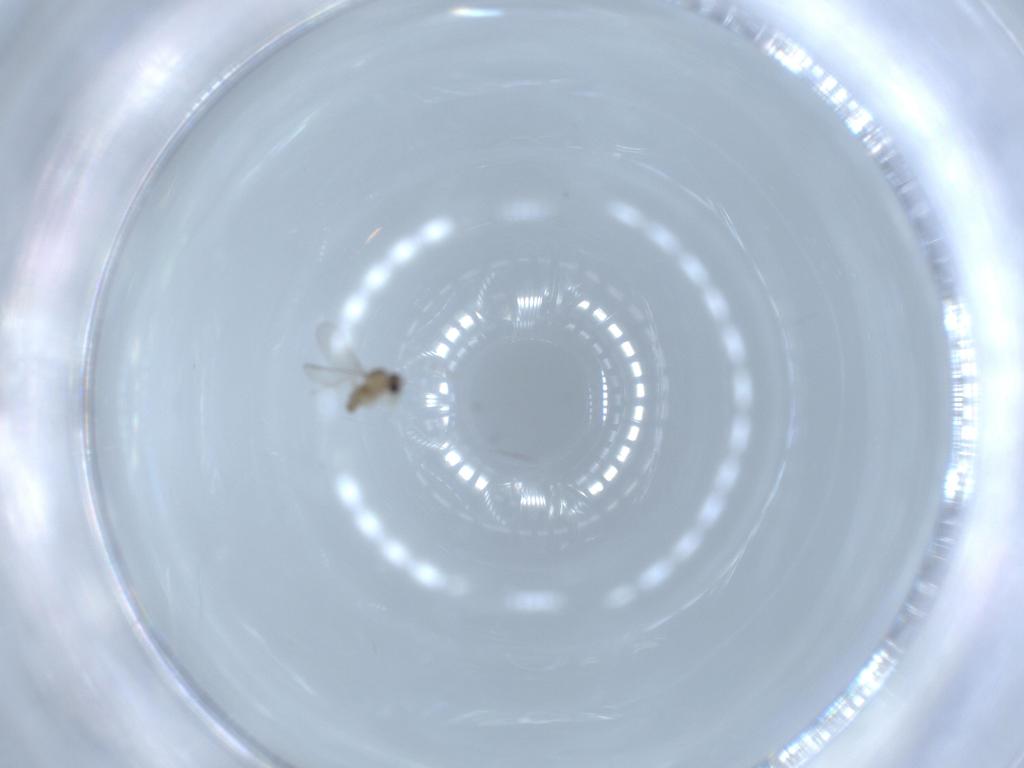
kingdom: Animalia
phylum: Arthropoda
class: Insecta
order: Diptera
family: Cecidomyiidae
